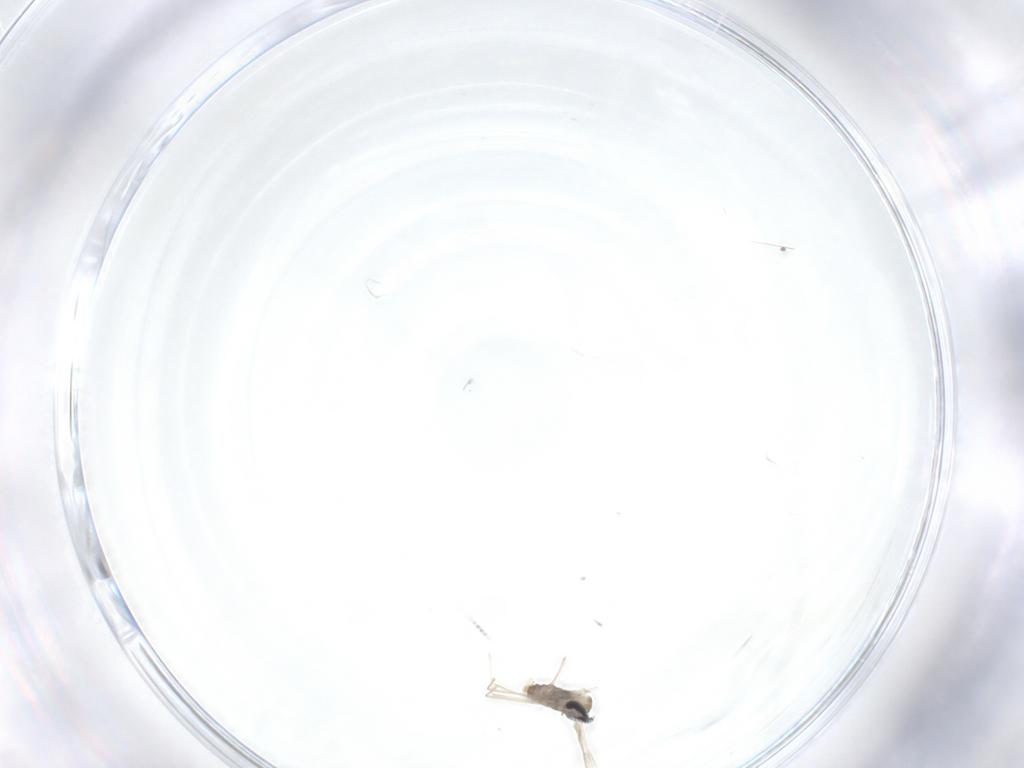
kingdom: Animalia
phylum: Arthropoda
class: Insecta
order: Diptera
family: Cecidomyiidae
